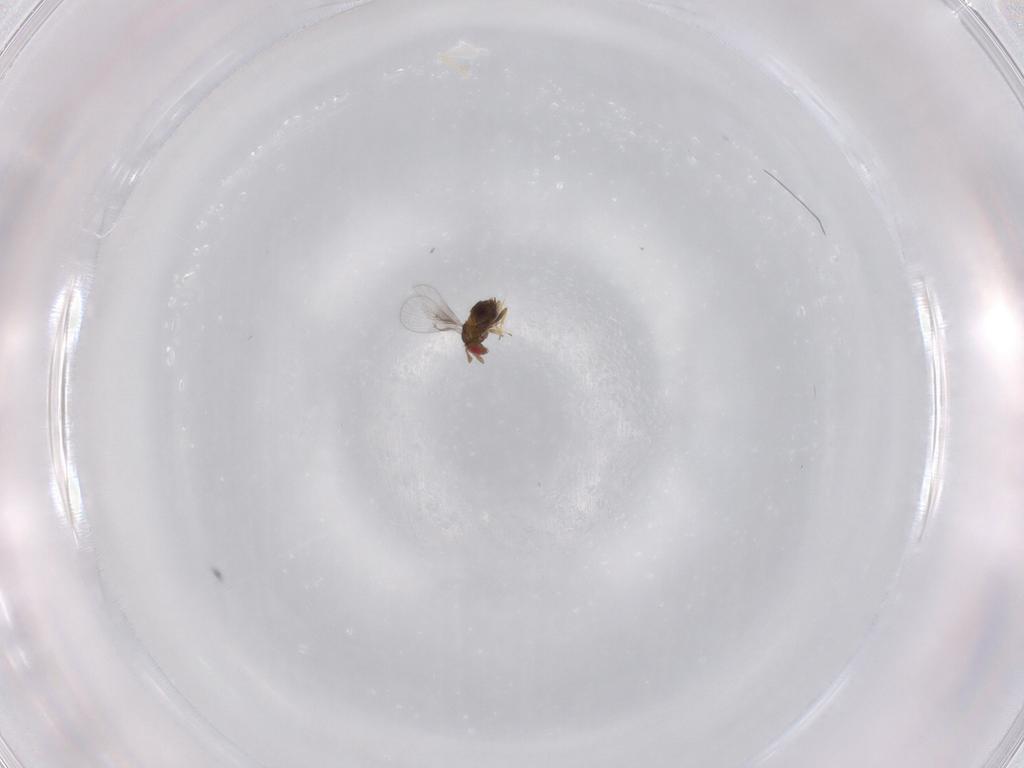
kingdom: Animalia
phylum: Arthropoda
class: Insecta
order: Hymenoptera
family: Trichogrammatidae
